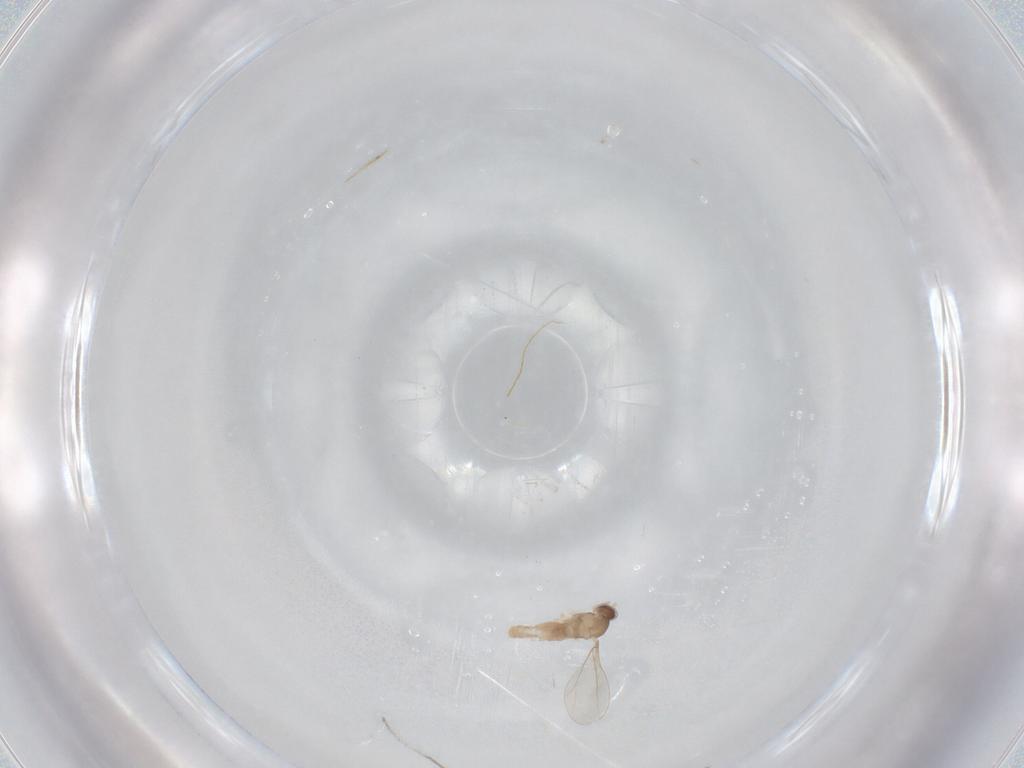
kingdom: Animalia
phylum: Arthropoda
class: Insecta
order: Diptera
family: Cecidomyiidae
